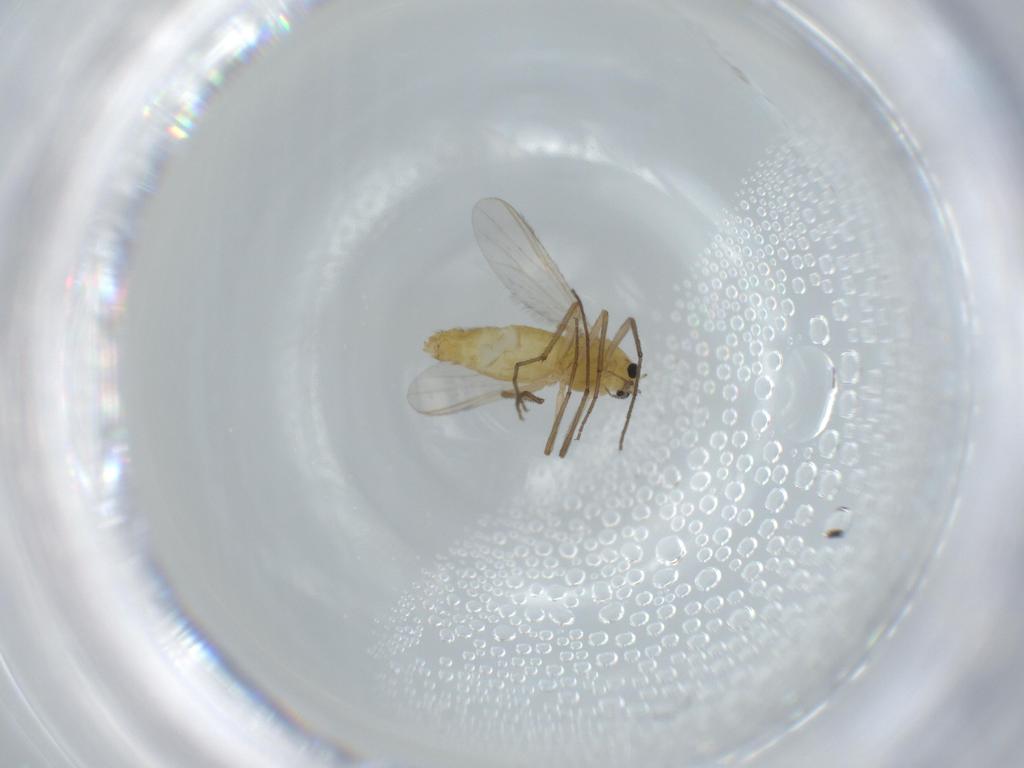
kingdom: Animalia
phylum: Arthropoda
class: Insecta
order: Diptera
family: Chironomidae
